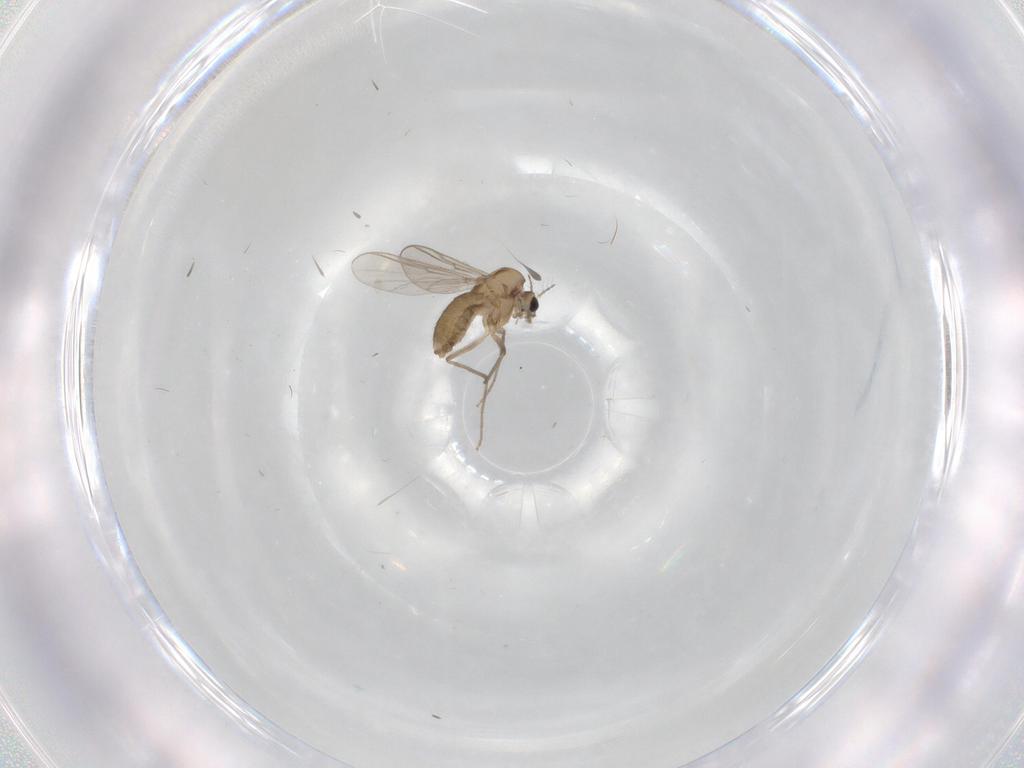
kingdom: Animalia
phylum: Arthropoda
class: Insecta
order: Diptera
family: Chironomidae
